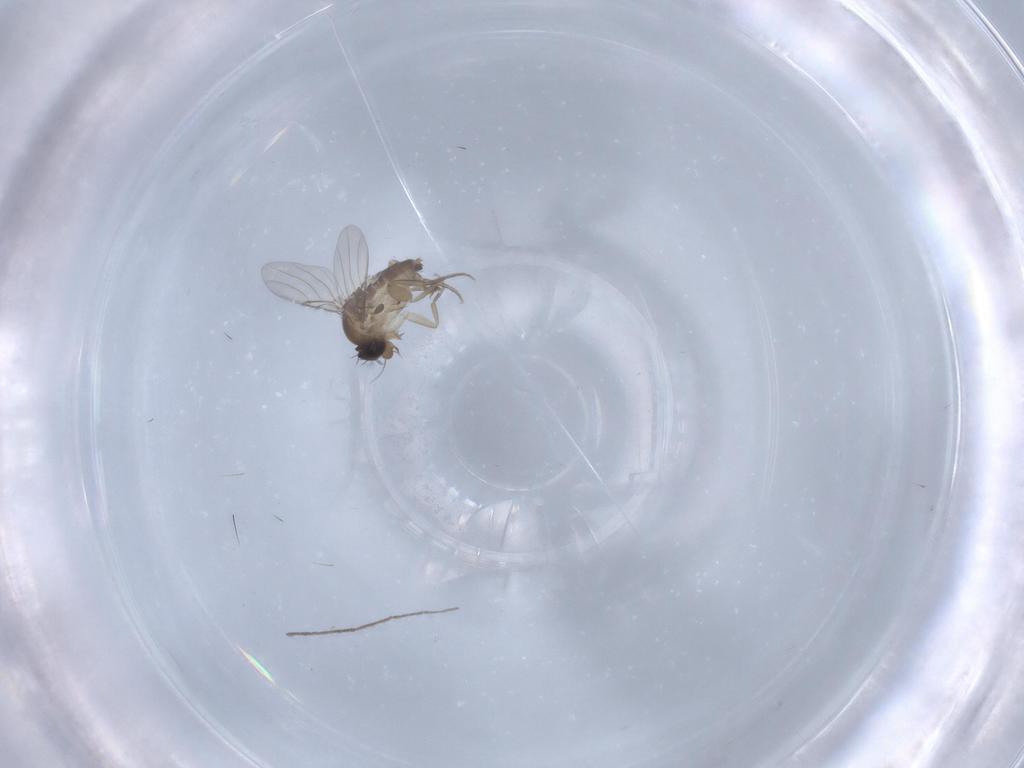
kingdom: Animalia
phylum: Arthropoda
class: Insecta
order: Diptera
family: Phoridae
